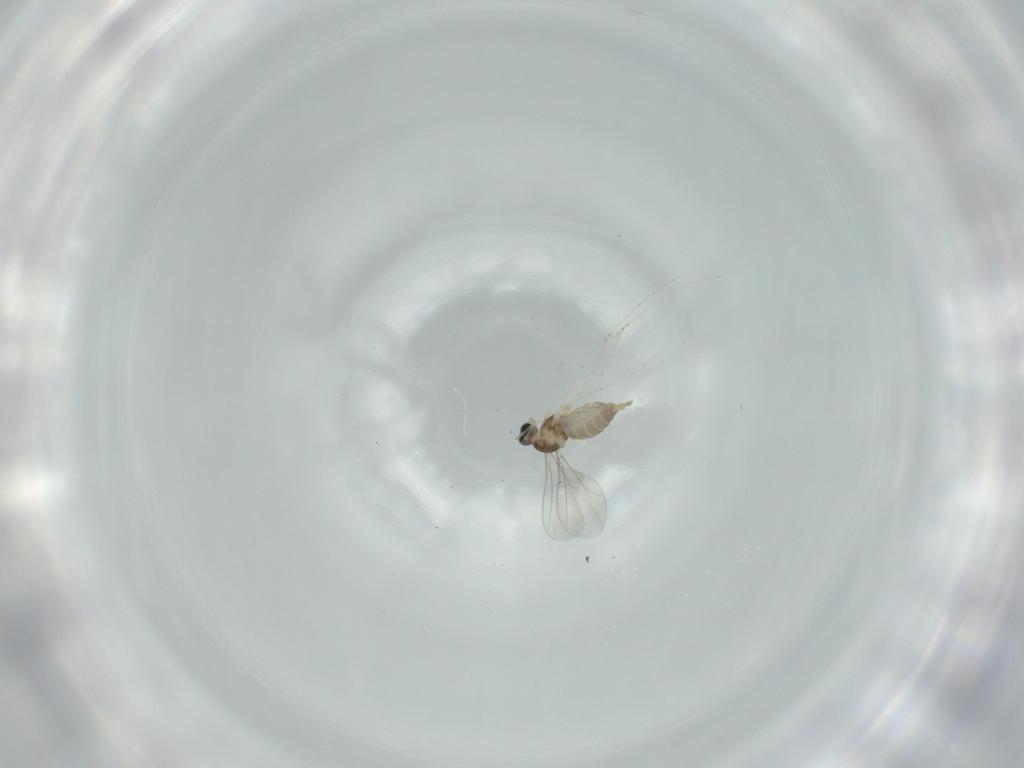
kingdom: Animalia
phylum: Arthropoda
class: Insecta
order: Diptera
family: Cecidomyiidae
